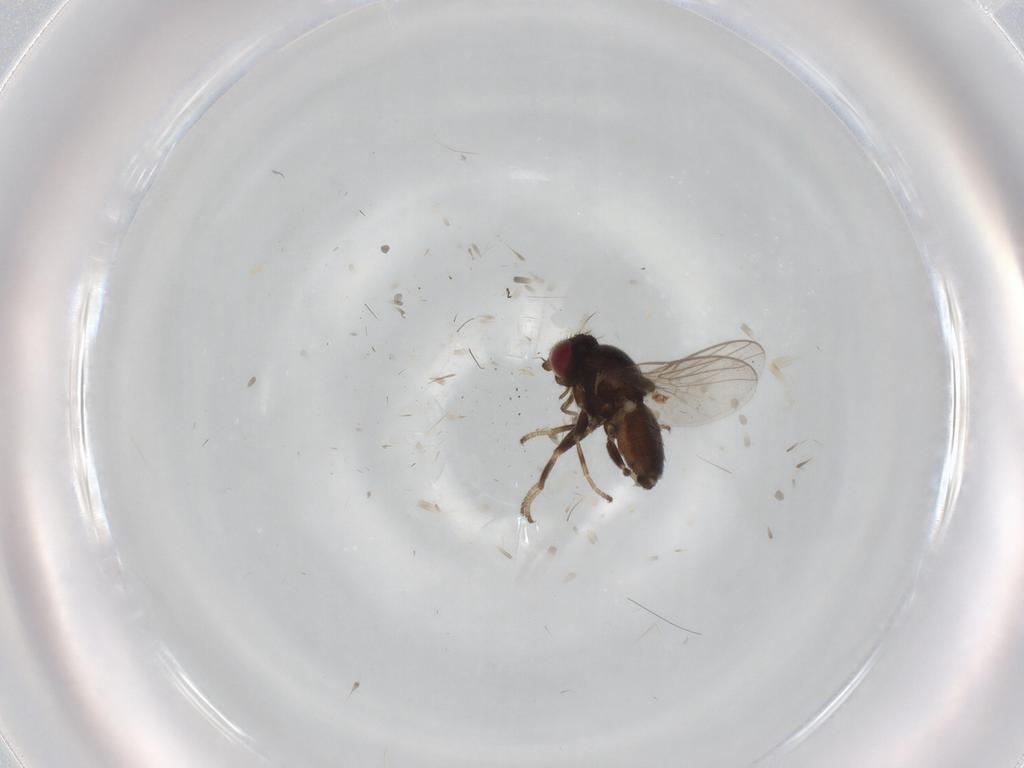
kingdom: Animalia
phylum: Arthropoda
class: Insecta
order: Diptera
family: Chloropidae
